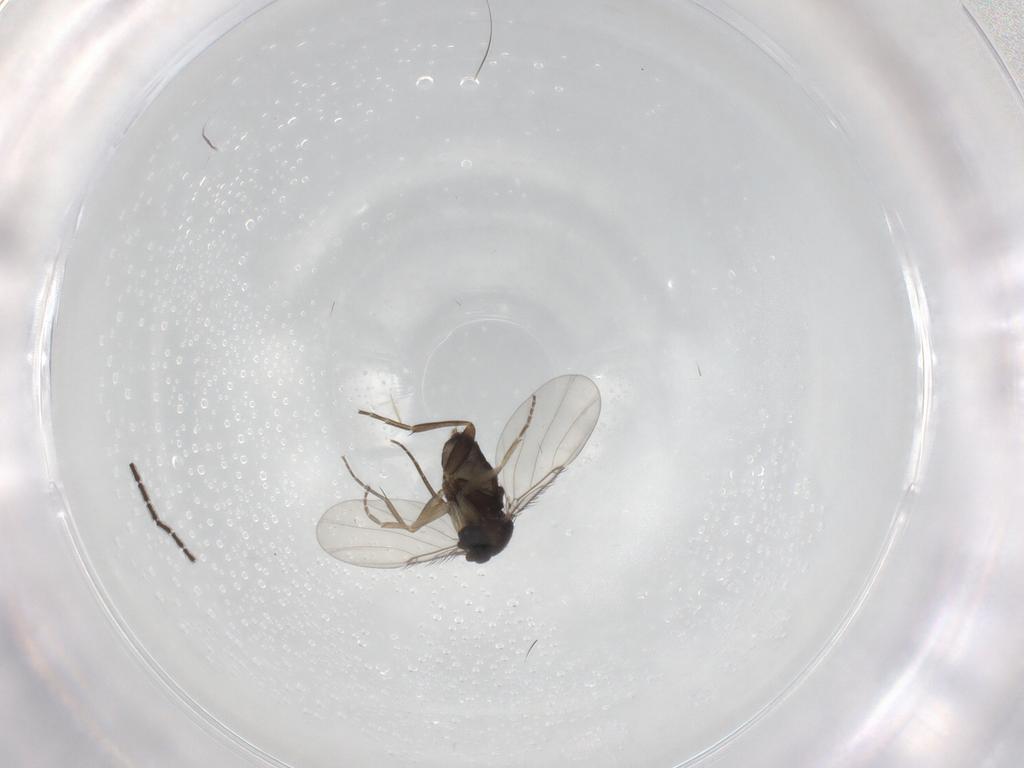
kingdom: Animalia
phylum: Arthropoda
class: Insecta
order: Diptera
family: Phoridae
